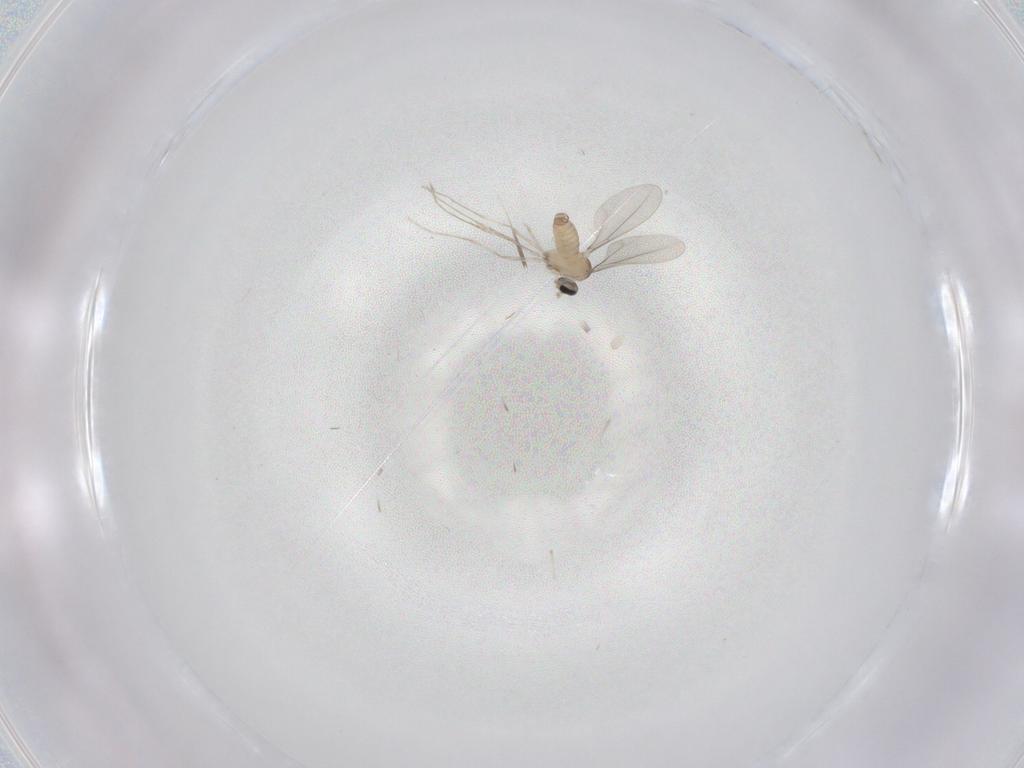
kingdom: Animalia
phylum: Arthropoda
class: Insecta
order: Diptera
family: Cecidomyiidae
